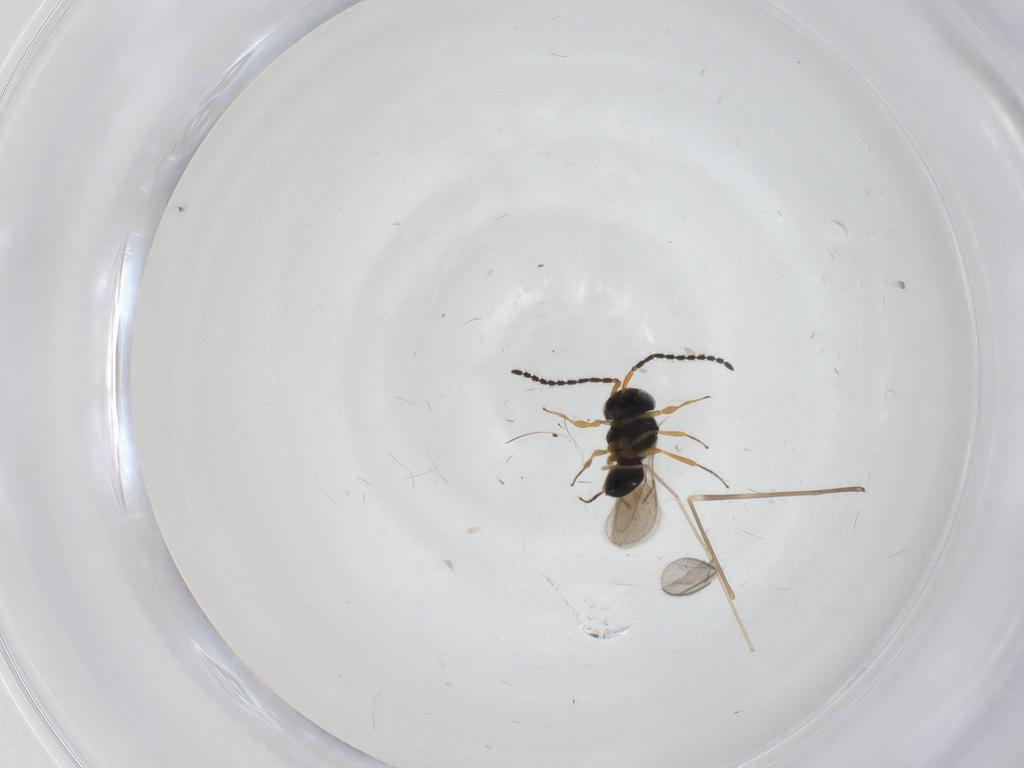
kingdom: Animalia
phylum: Arthropoda
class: Insecta
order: Hymenoptera
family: Scelionidae
